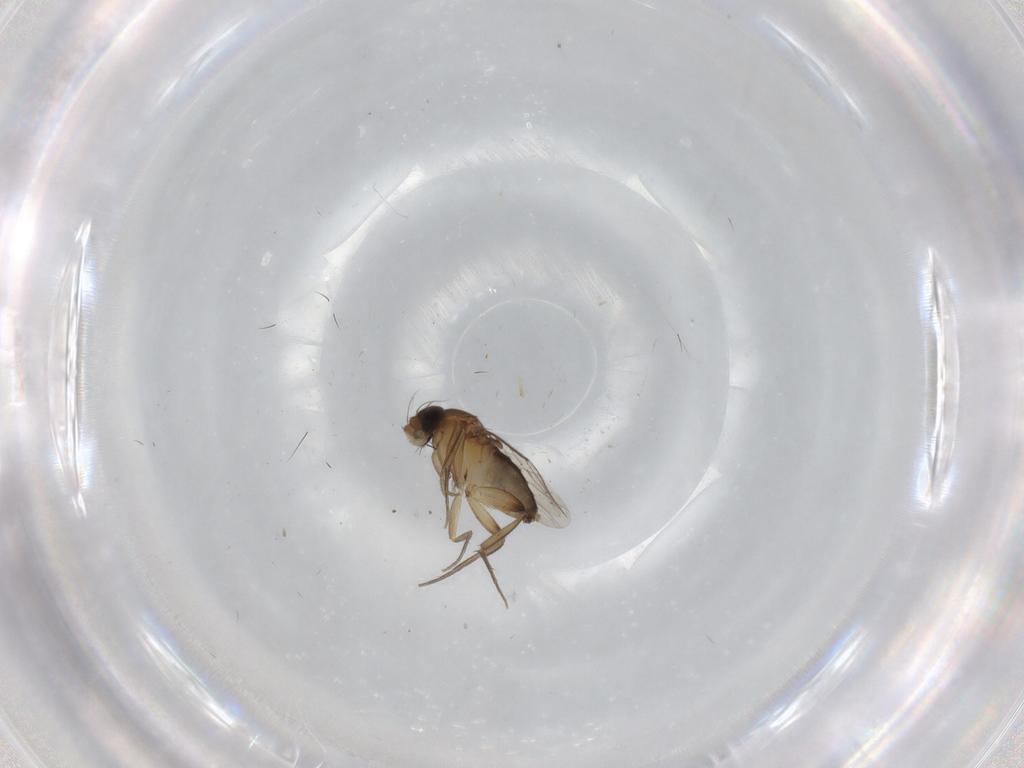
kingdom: Animalia
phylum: Arthropoda
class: Insecta
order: Diptera
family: Phoridae
